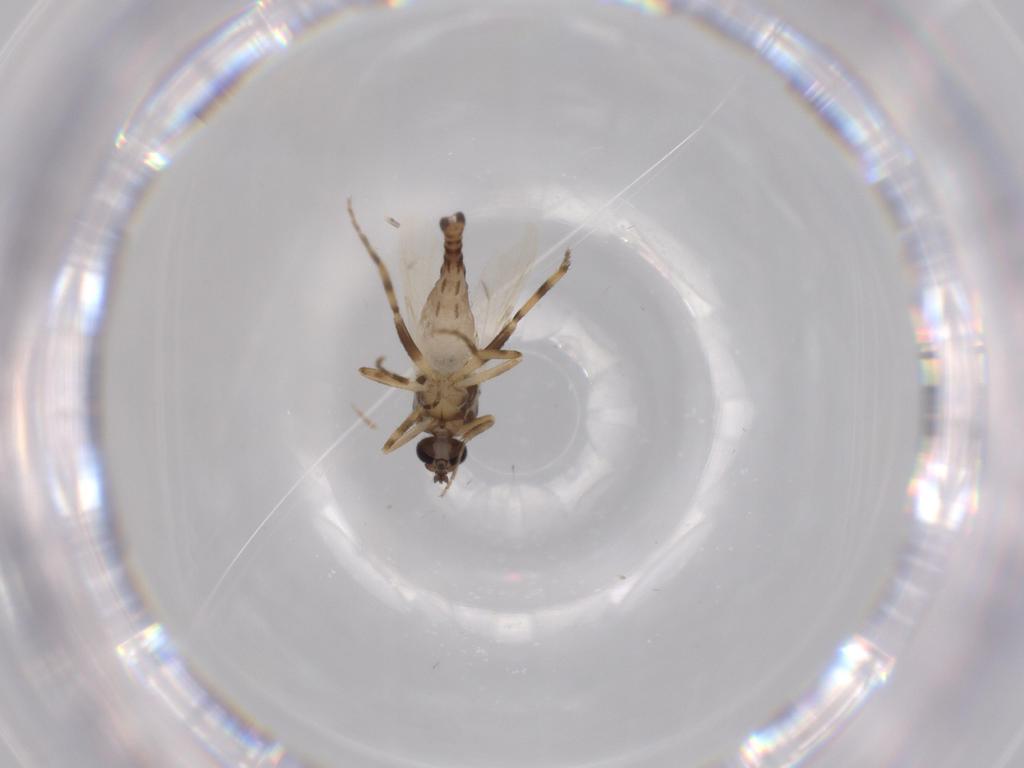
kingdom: Animalia
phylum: Arthropoda
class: Insecta
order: Diptera
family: Ceratopogonidae
